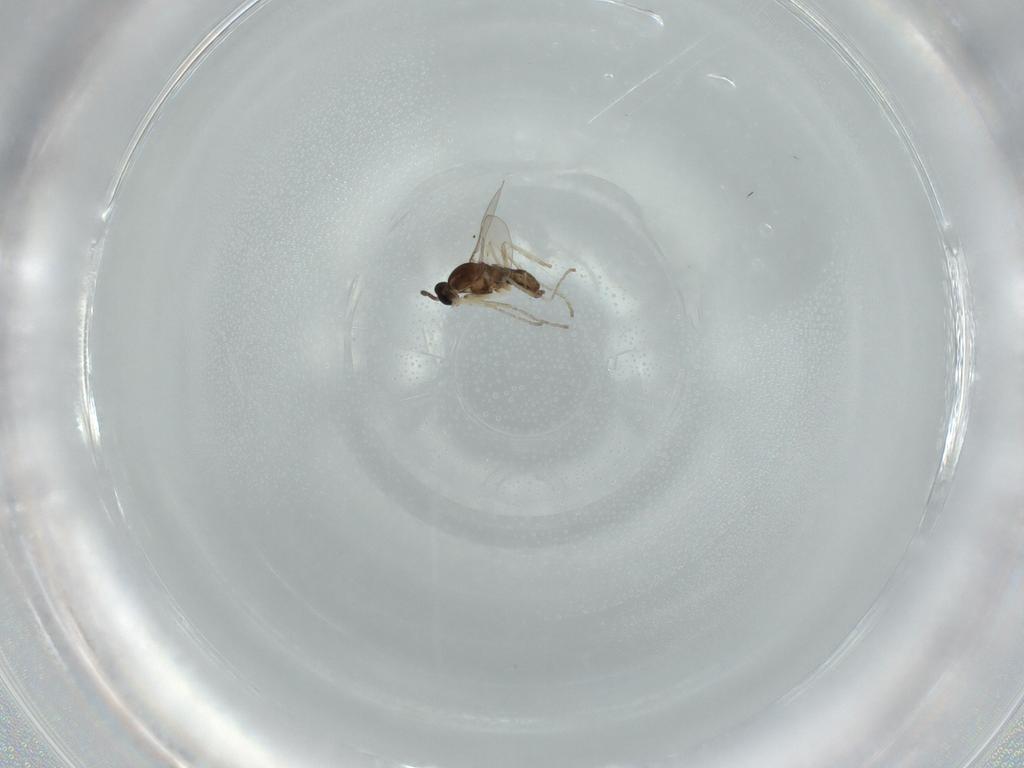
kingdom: Animalia
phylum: Arthropoda
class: Insecta
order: Diptera
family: Cecidomyiidae
